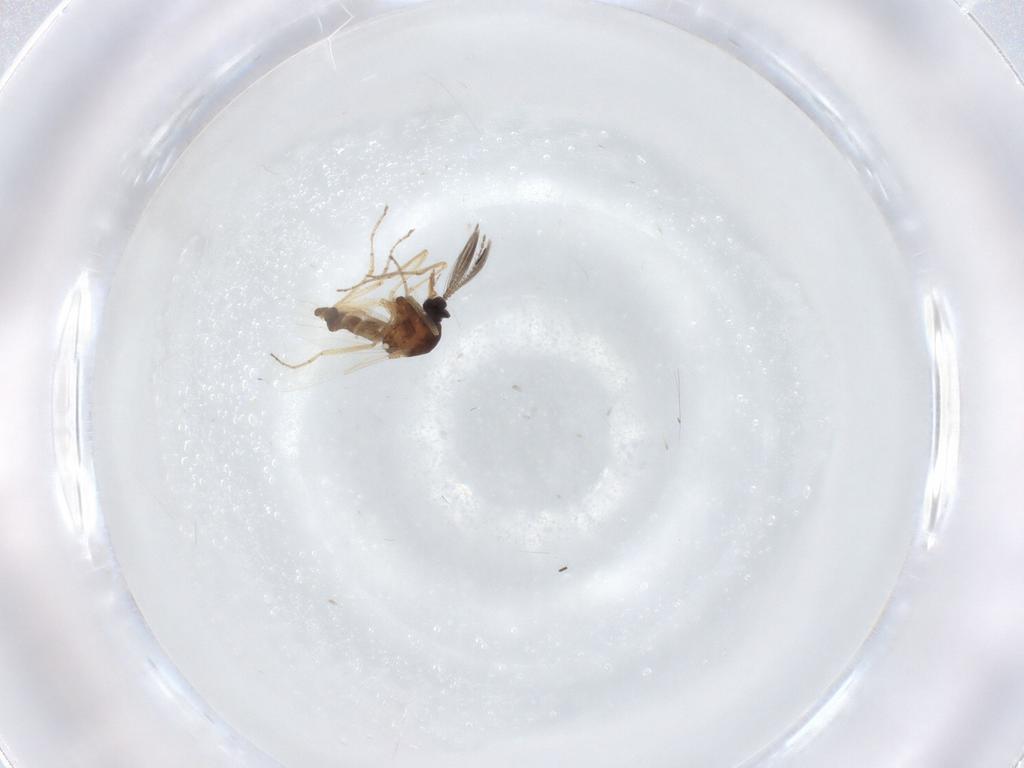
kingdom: Animalia
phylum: Arthropoda
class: Insecta
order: Diptera
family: Ceratopogonidae
